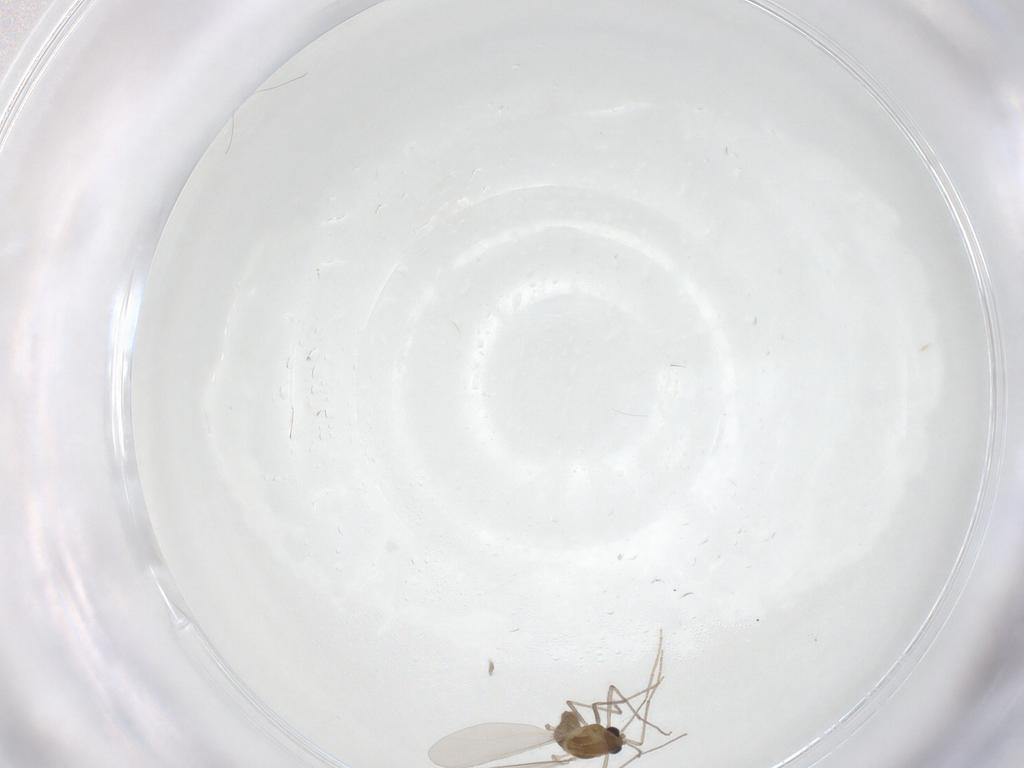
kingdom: Animalia
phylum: Arthropoda
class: Insecta
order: Diptera
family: Chironomidae
